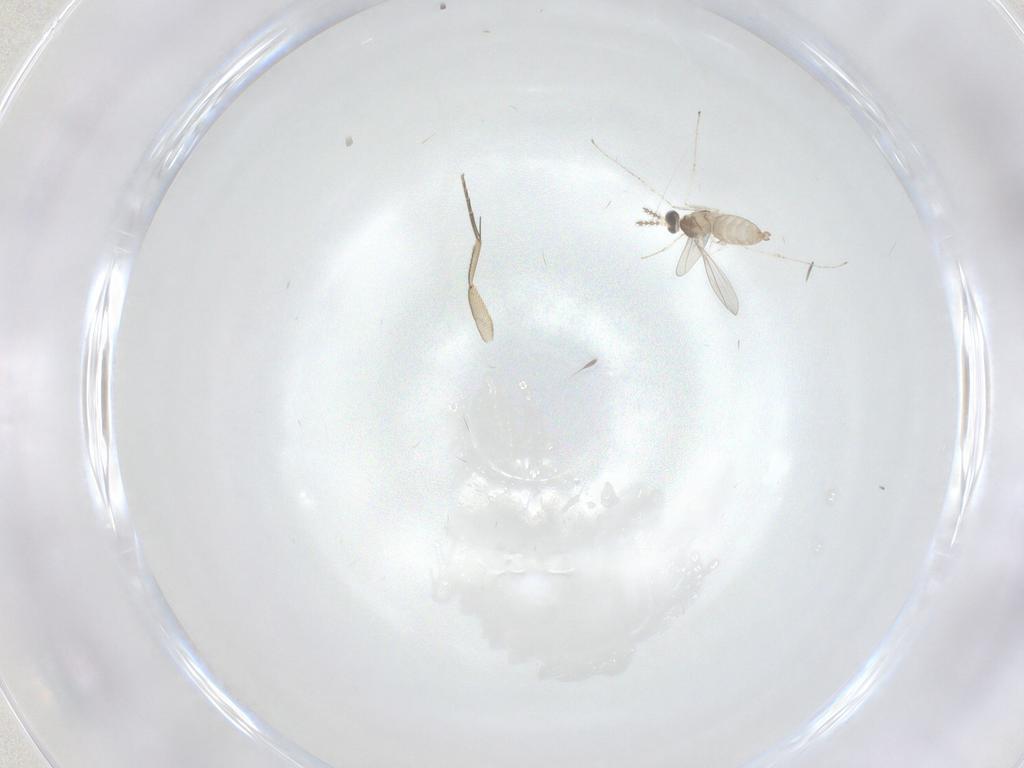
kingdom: Animalia
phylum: Arthropoda
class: Insecta
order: Diptera
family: Phoridae
